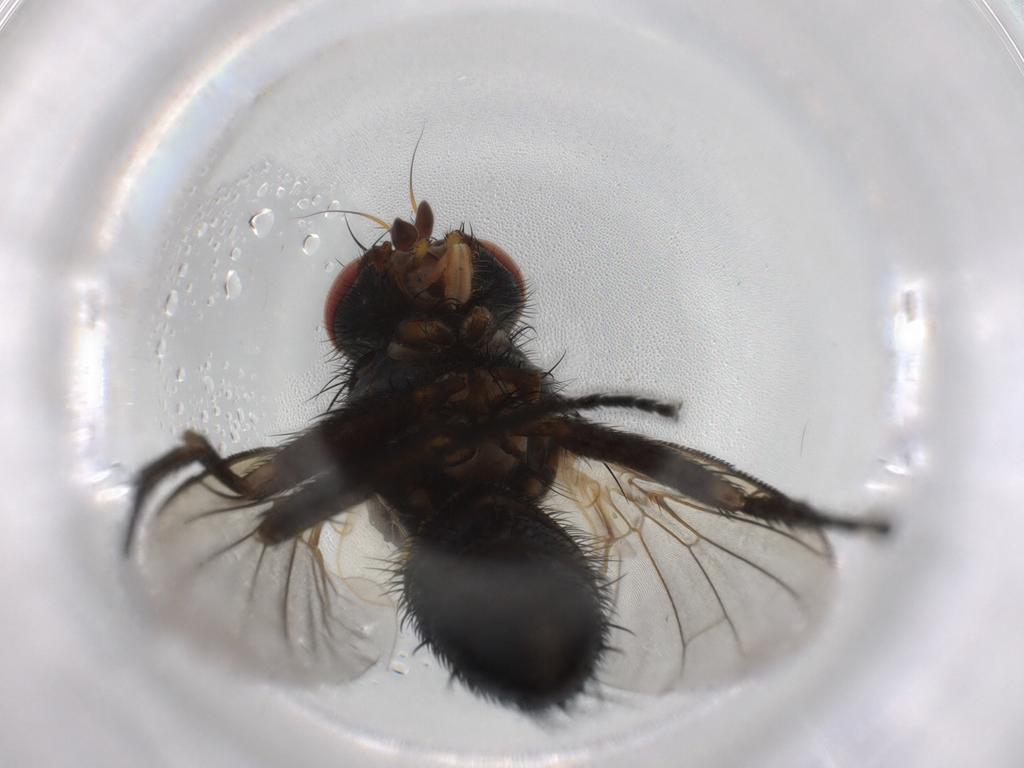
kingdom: Animalia
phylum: Arthropoda
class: Insecta
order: Diptera
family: Cecidomyiidae
